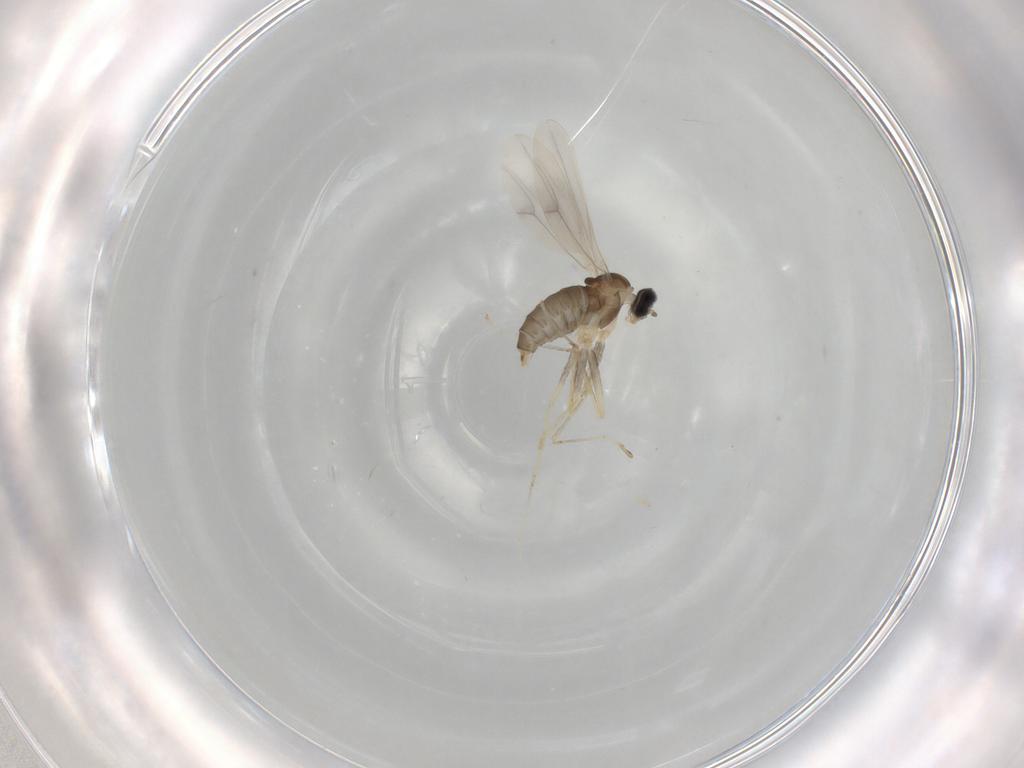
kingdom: Animalia
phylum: Arthropoda
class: Insecta
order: Diptera
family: Cecidomyiidae
